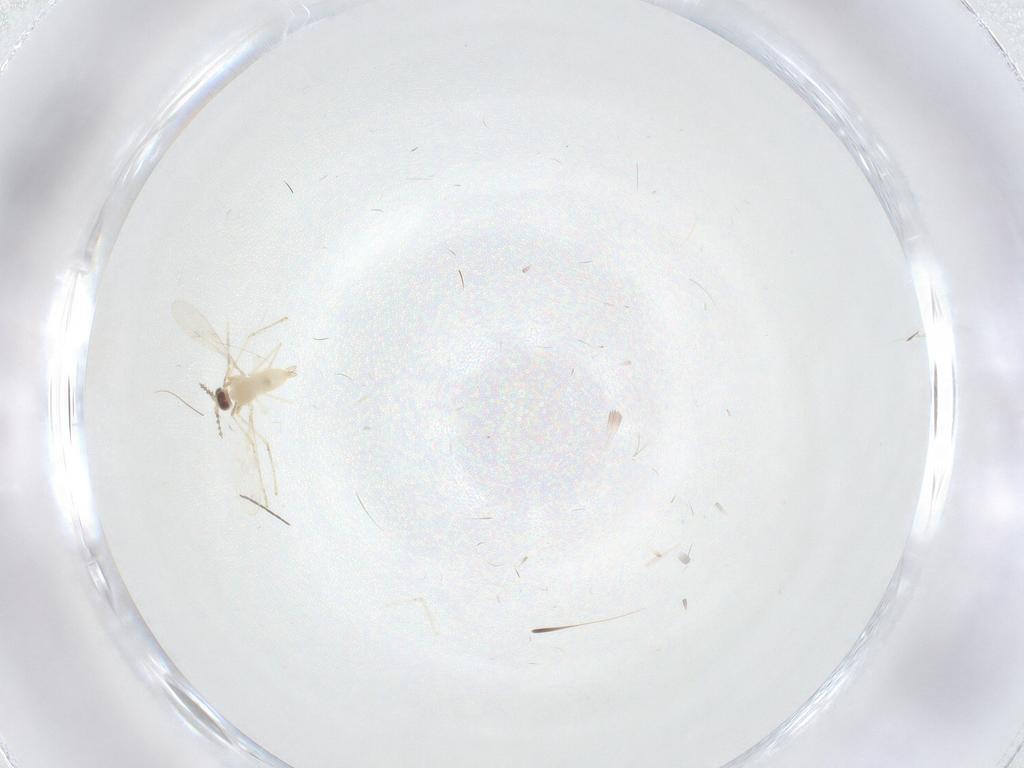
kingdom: Animalia
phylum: Arthropoda
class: Insecta
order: Diptera
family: Cecidomyiidae
